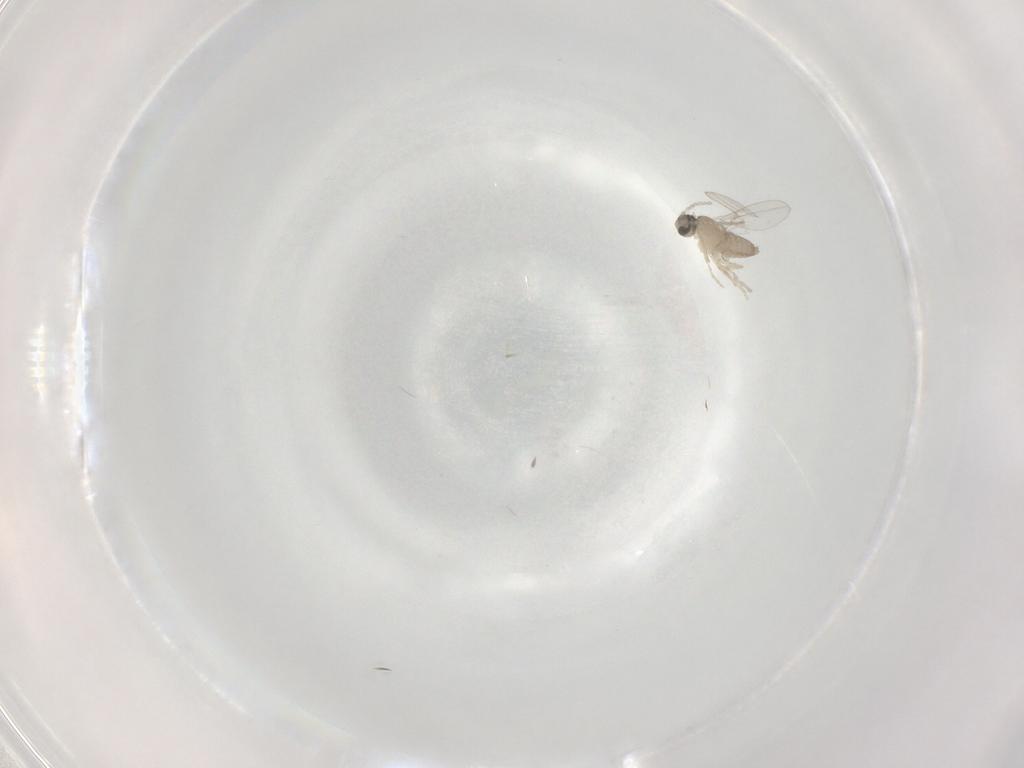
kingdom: Animalia
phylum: Arthropoda
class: Insecta
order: Diptera
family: Cecidomyiidae
